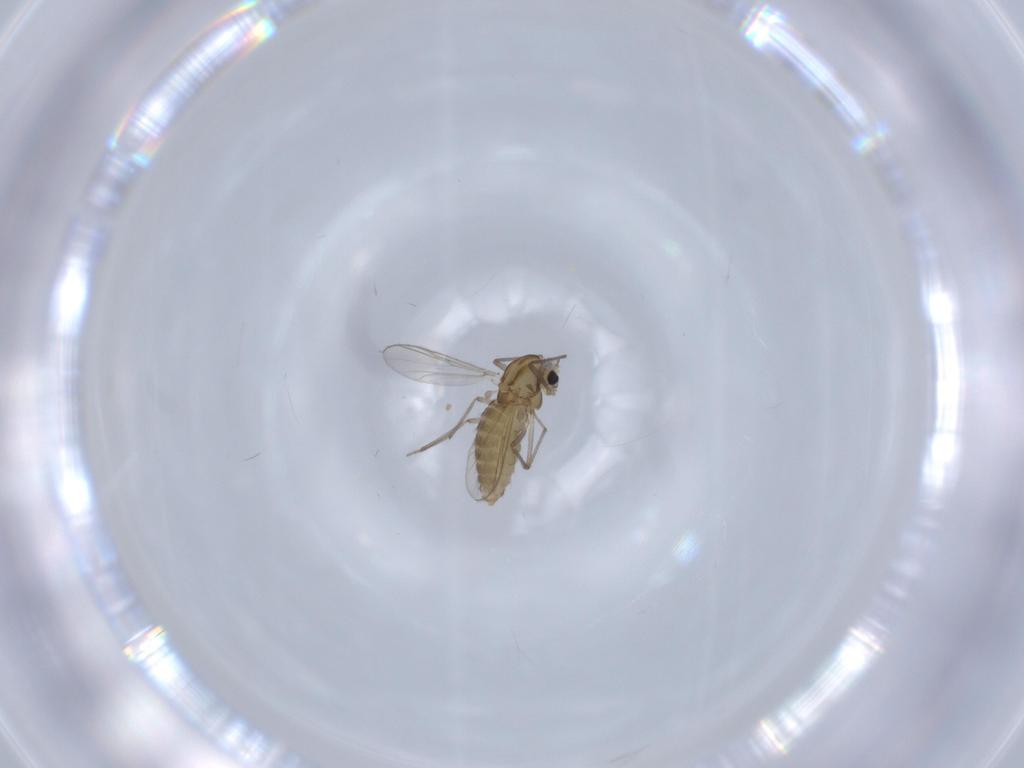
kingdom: Animalia
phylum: Arthropoda
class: Insecta
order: Diptera
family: Chironomidae
